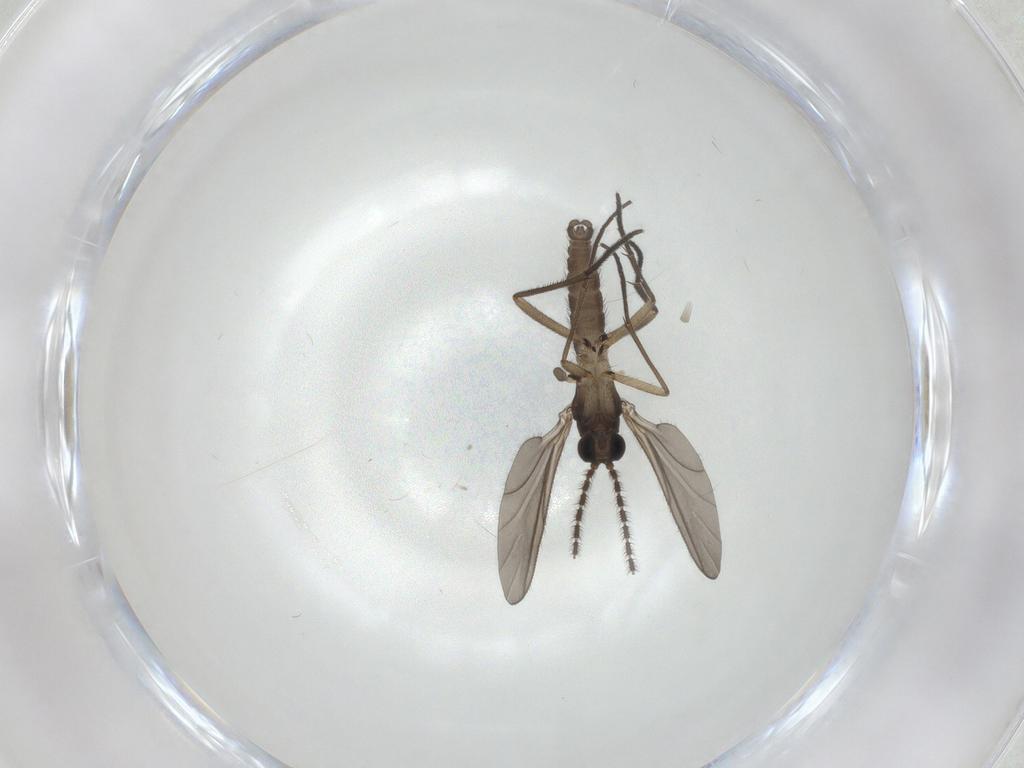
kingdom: Animalia
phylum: Arthropoda
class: Insecta
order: Diptera
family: Sciaridae
